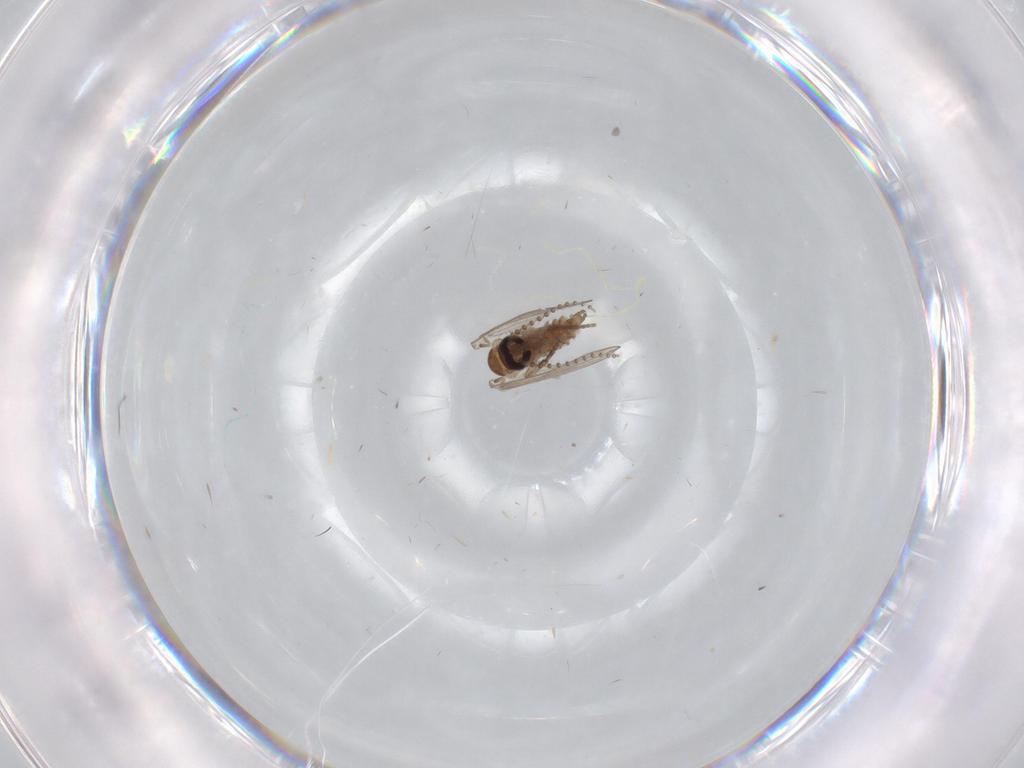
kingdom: Animalia
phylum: Arthropoda
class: Insecta
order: Diptera
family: Psychodidae
